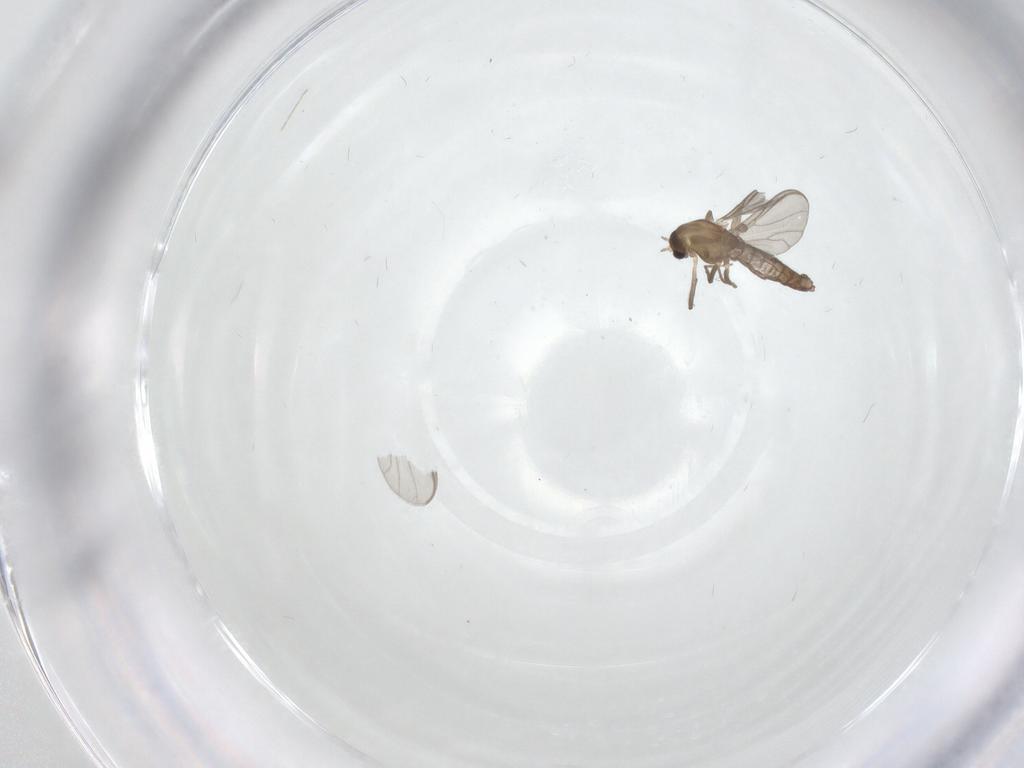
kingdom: Animalia
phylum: Arthropoda
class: Insecta
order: Diptera
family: Chironomidae
